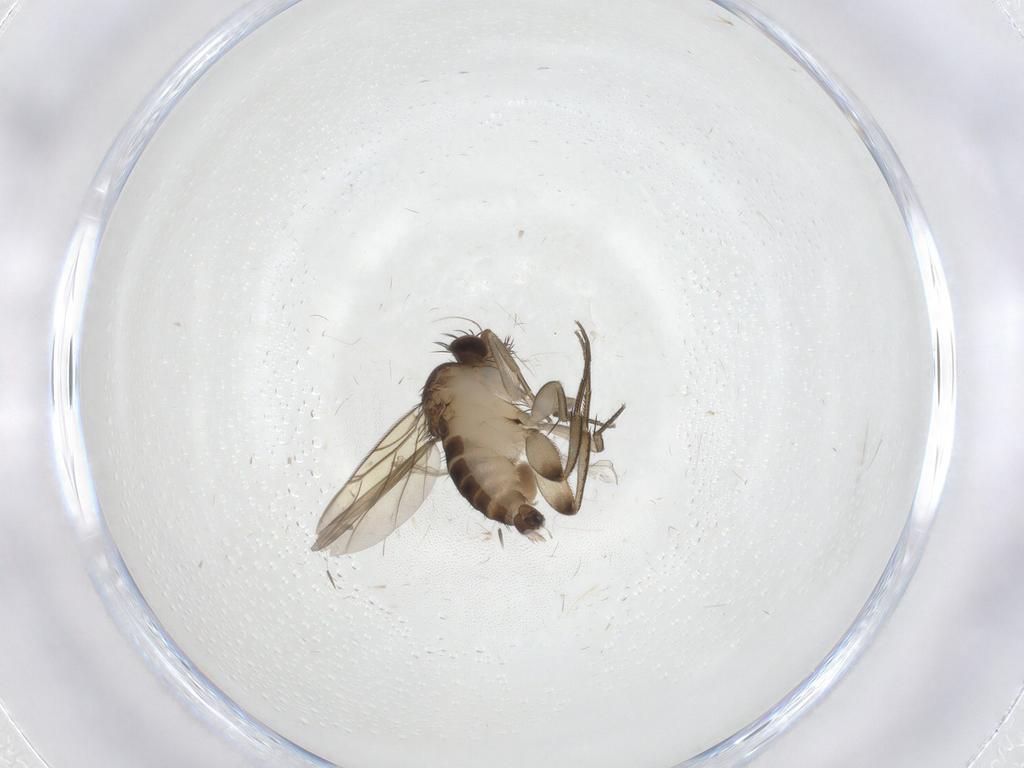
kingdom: Animalia
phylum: Arthropoda
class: Insecta
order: Diptera
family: Phoridae
